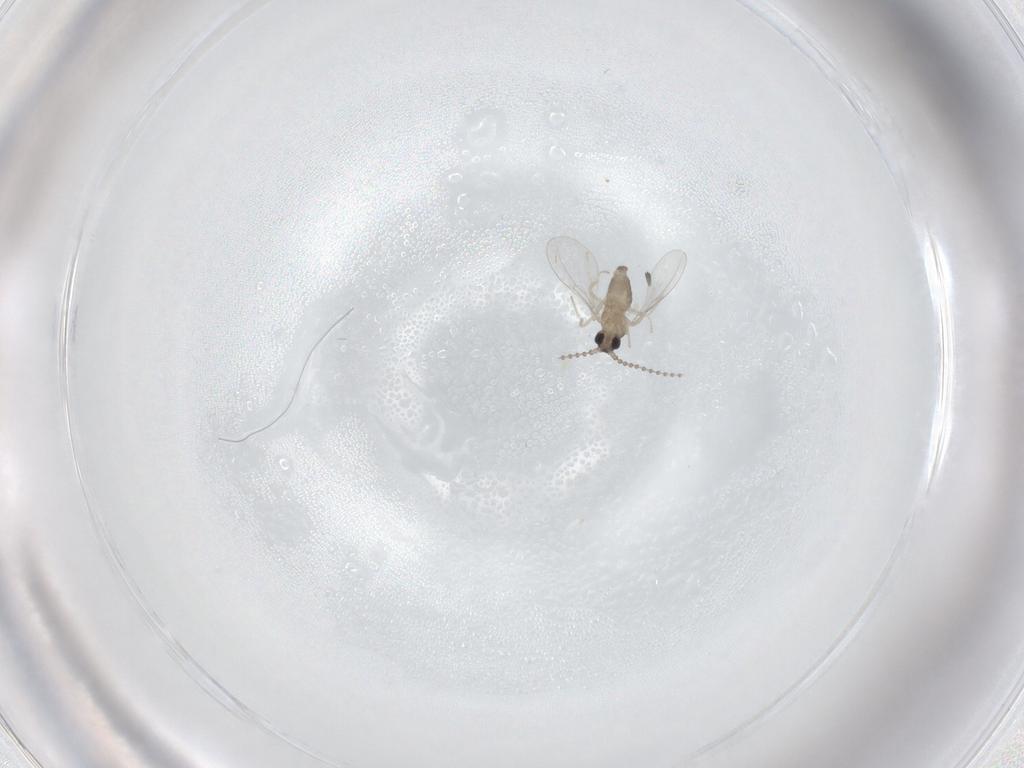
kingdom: Animalia
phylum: Arthropoda
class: Insecta
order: Diptera
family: Cecidomyiidae
